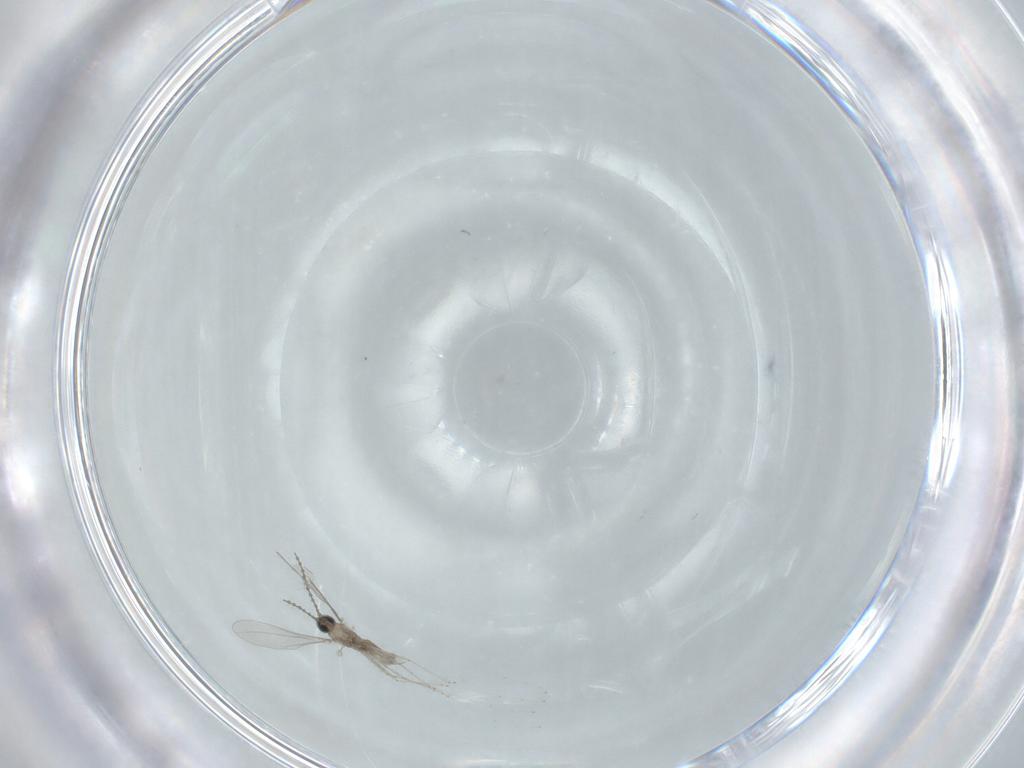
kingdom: Animalia
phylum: Arthropoda
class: Insecta
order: Diptera
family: Cecidomyiidae
